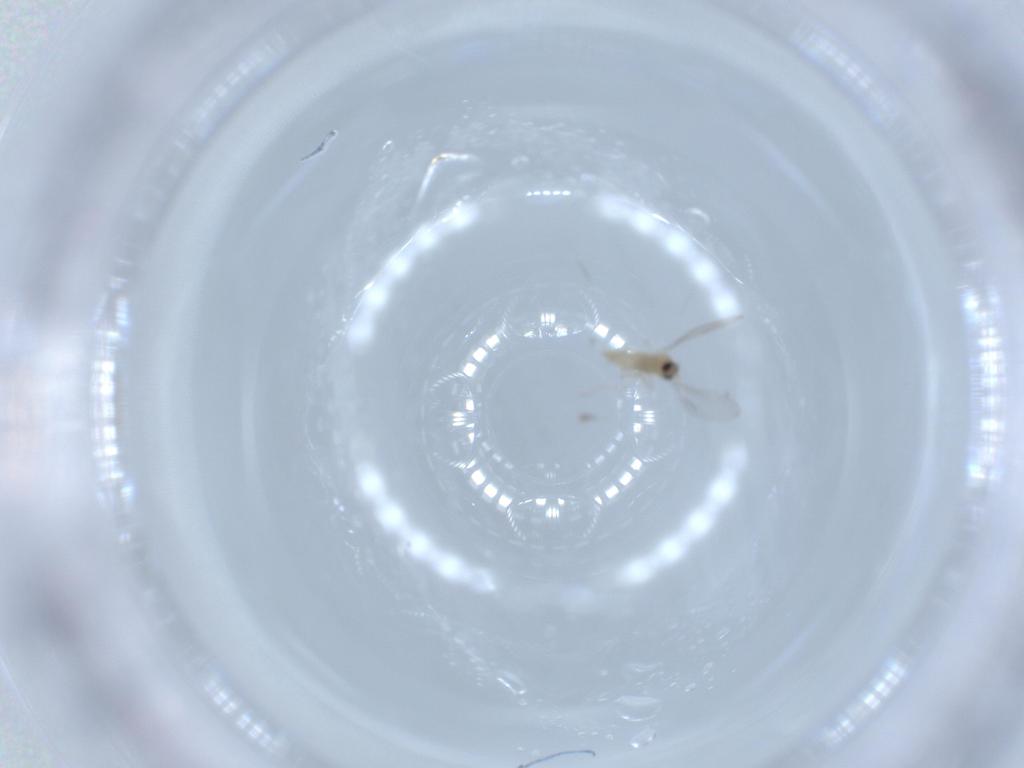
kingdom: Animalia
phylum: Arthropoda
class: Insecta
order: Diptera
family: Cecidomyiidae
